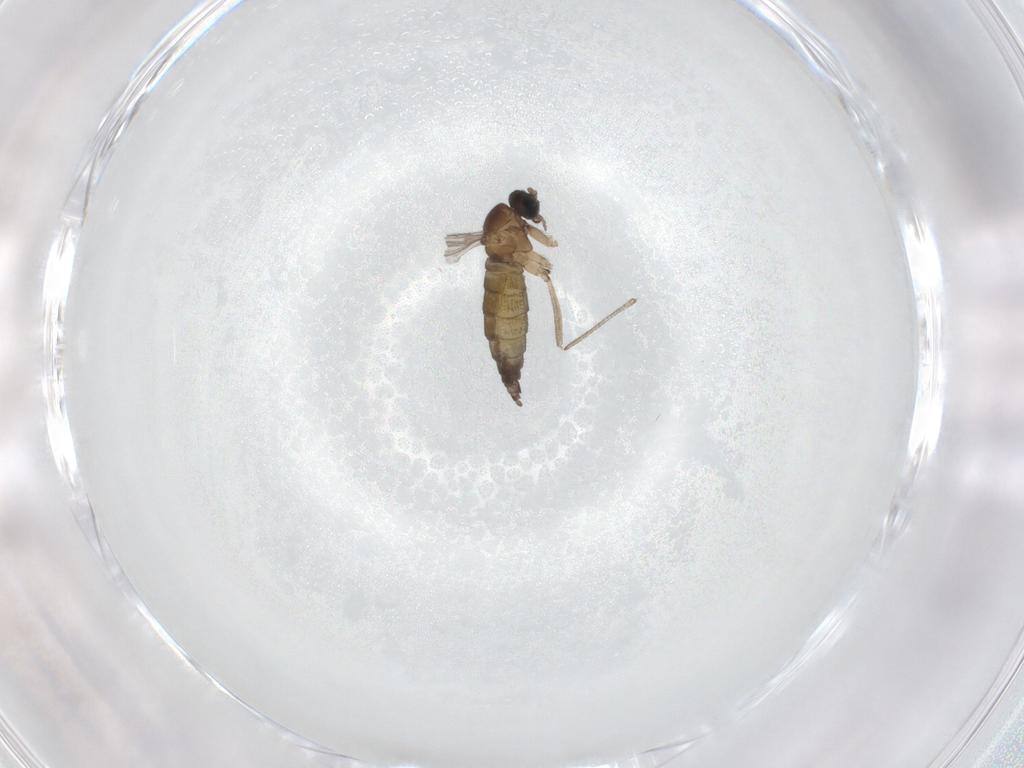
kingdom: Animalia
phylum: Arthropoda
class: Insecta
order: Diptera
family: Sciaridae
